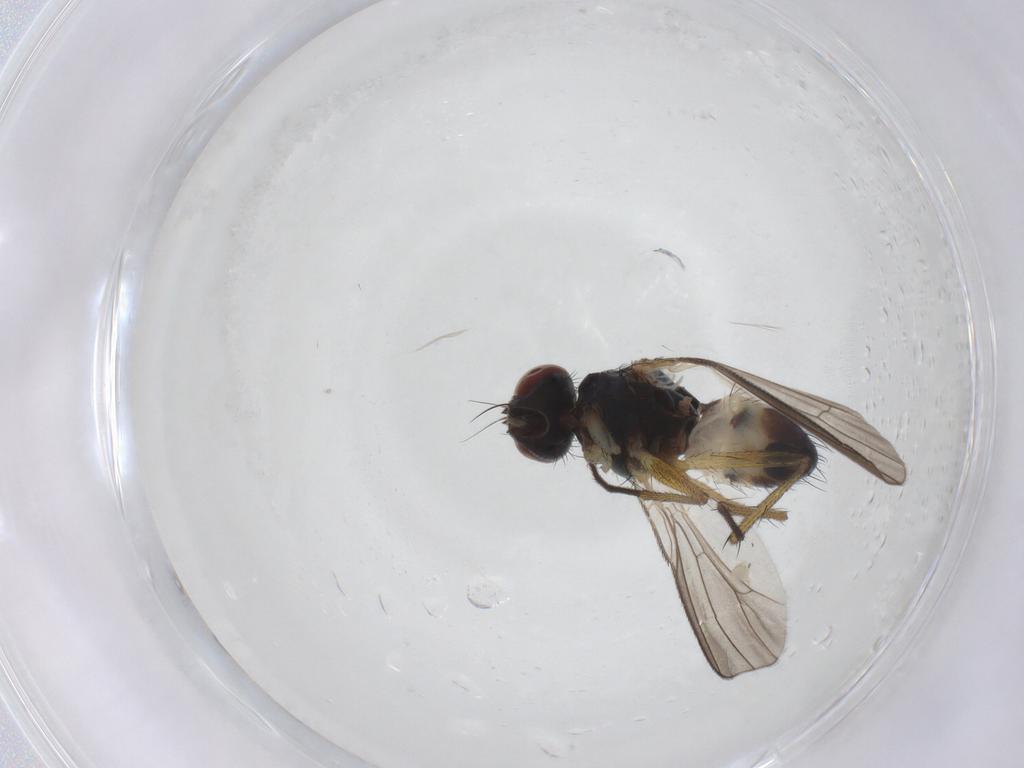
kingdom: Animalia
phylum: Arthropoda
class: Insecta
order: Diptera
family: Muscidae
